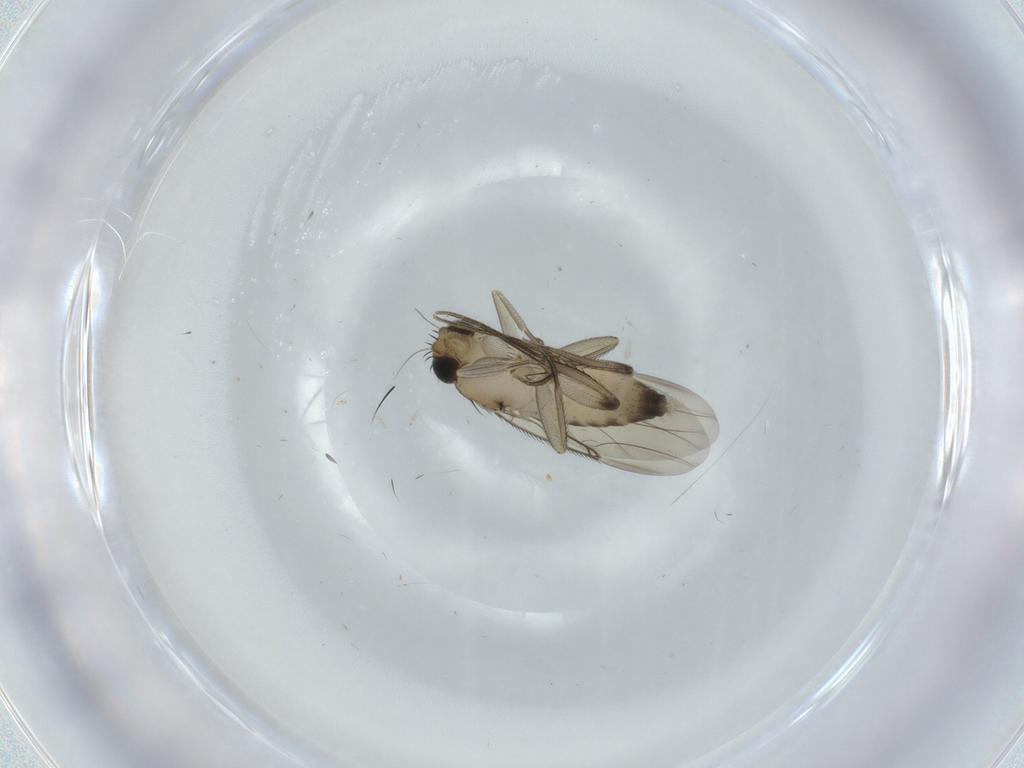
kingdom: Animalia
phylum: Arthropoda
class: Insecta
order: Diptera
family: Phoridae
